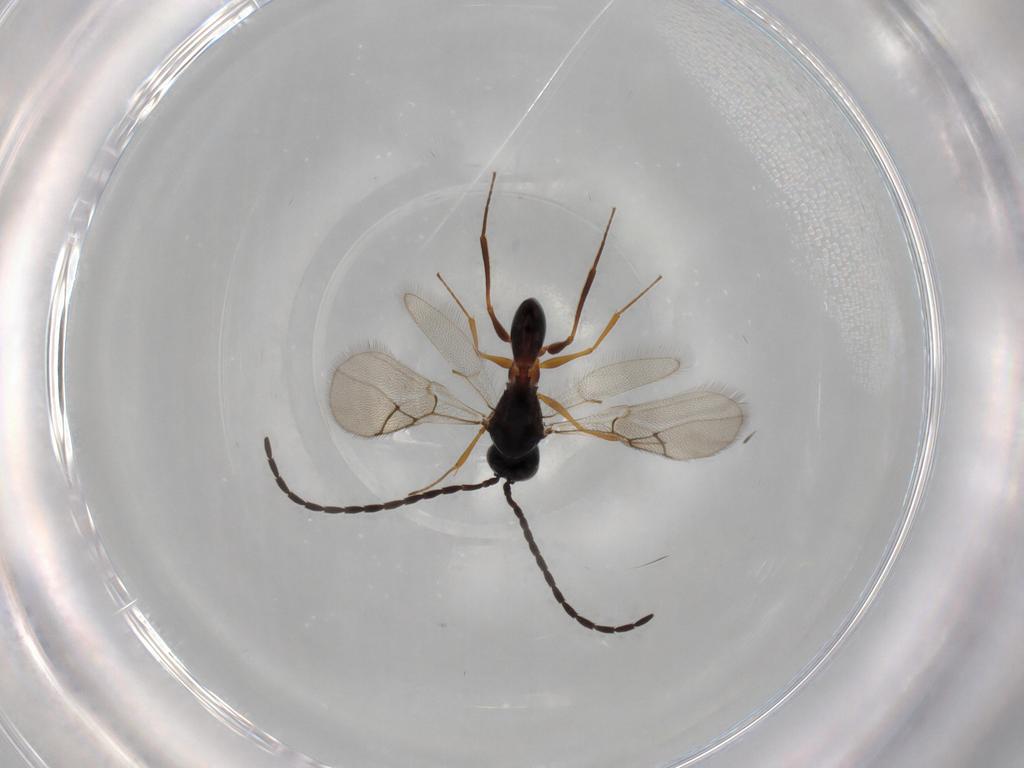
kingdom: Animalia
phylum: Arthropoda
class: Insecta
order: Hymenoptera
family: Figitidae
